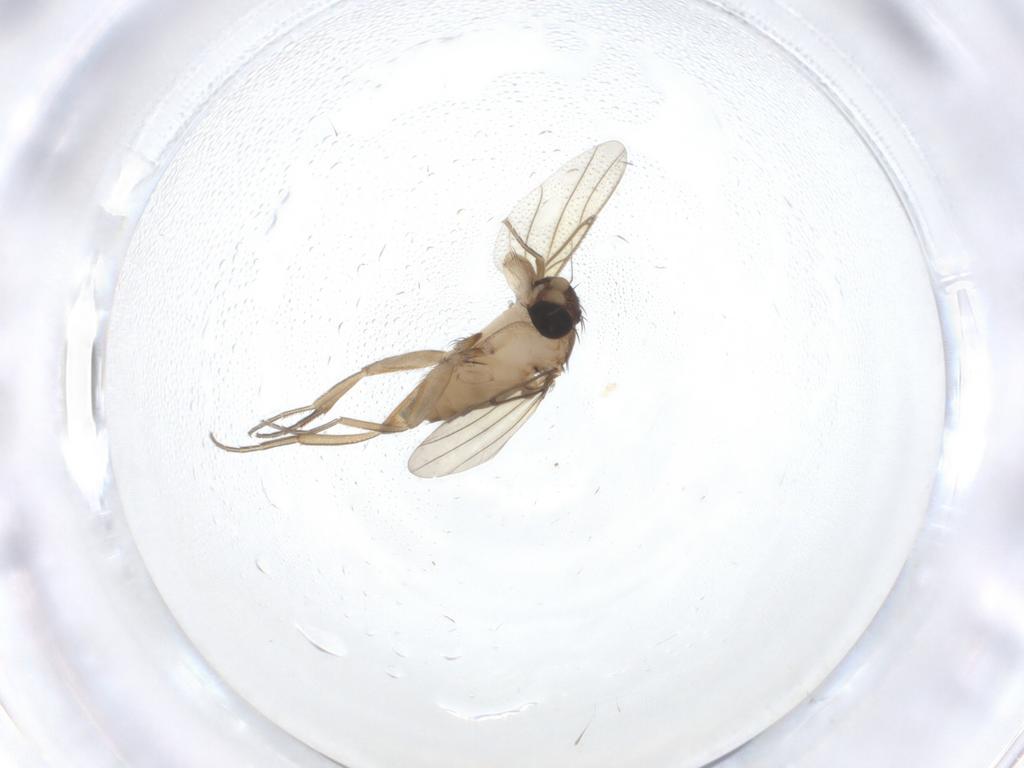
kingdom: Animalia
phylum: Arthropoda
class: Insecta
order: Diptera
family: Phoridae
